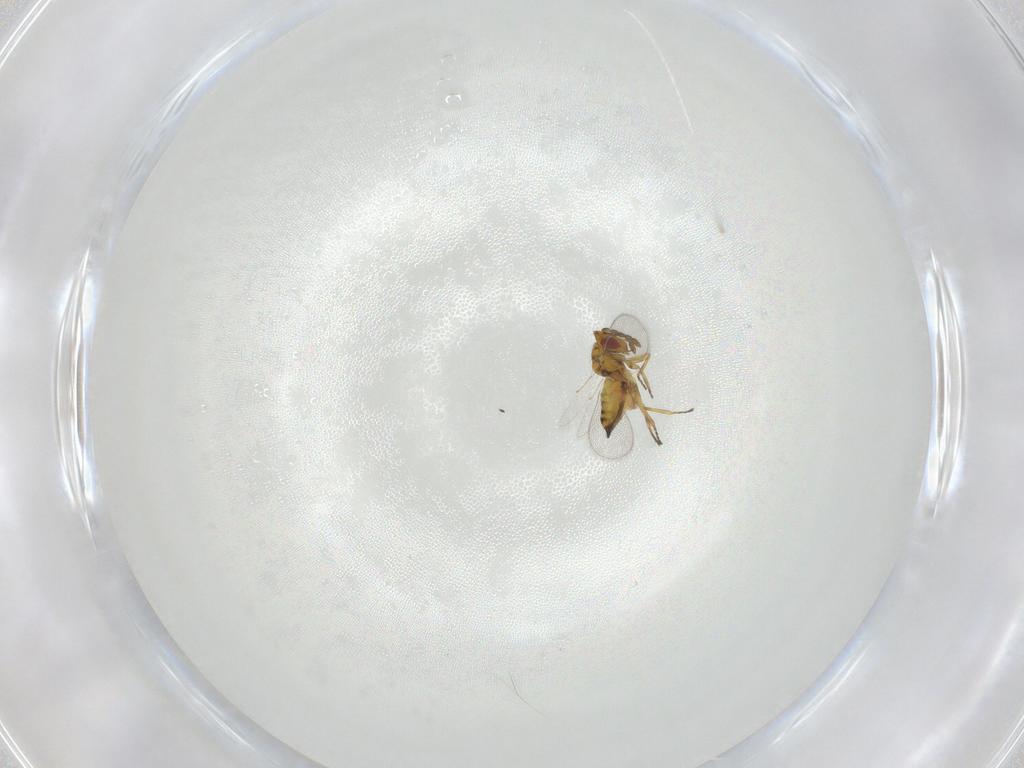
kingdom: Animalia
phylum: Arthropoda
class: Insecta
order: Hymenoptera
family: Eulophidae
